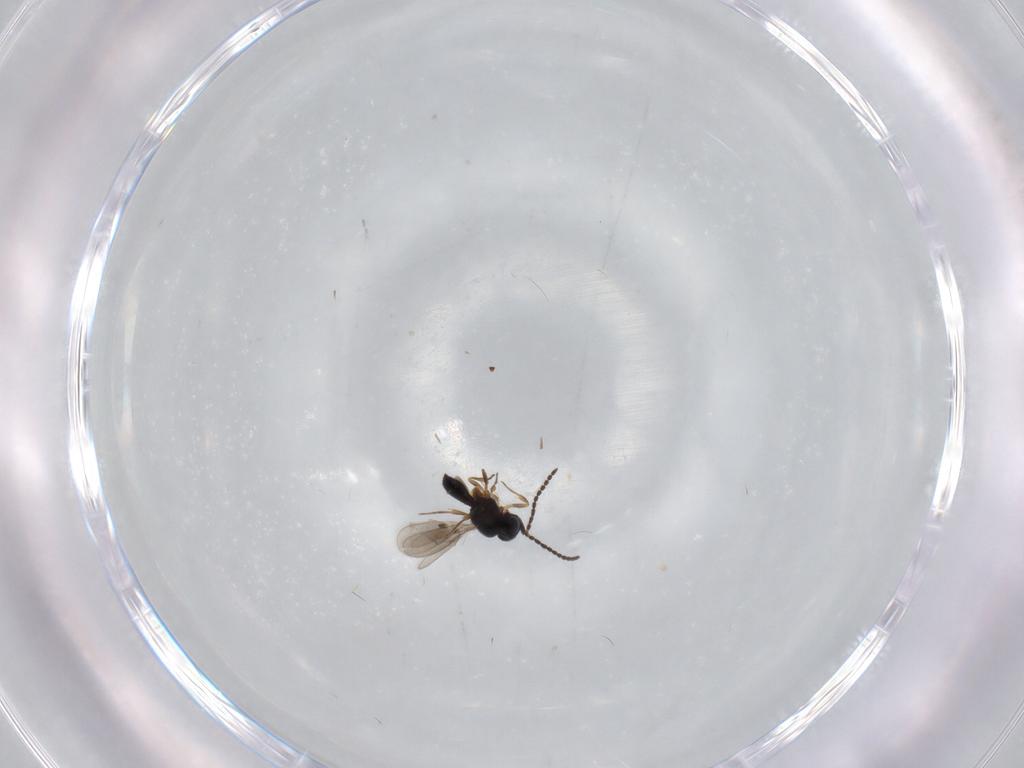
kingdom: Animalia
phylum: Arthropoda
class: Insecta
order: Hymenoptera
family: Scelionidae
